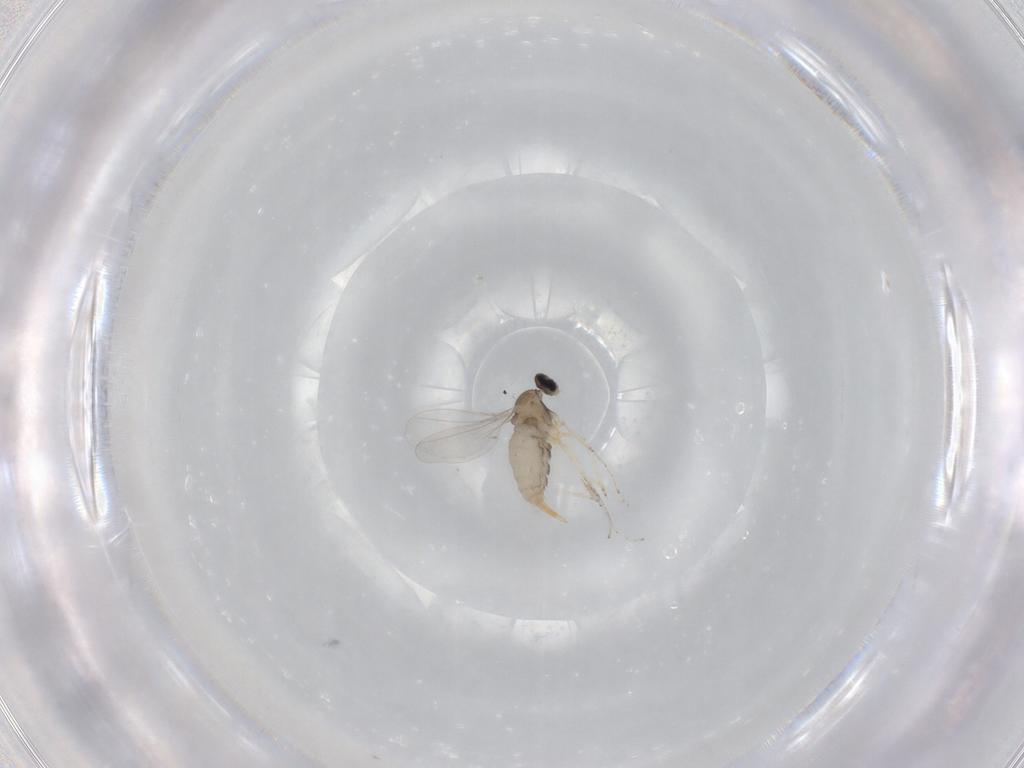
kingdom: Animalia
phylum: Arthropoda
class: Insecta
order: Diptera
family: Cecidomyiidae
